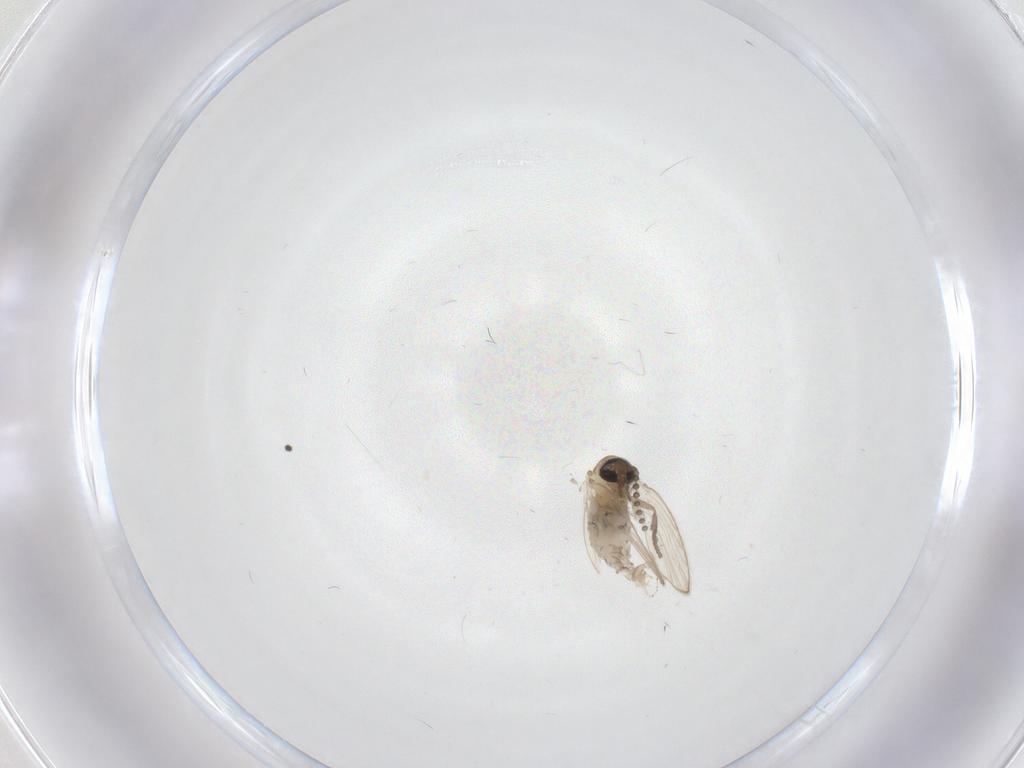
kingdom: Animalia
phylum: Arthropoda
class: Insecta
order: Diptera
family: Psychodidae
